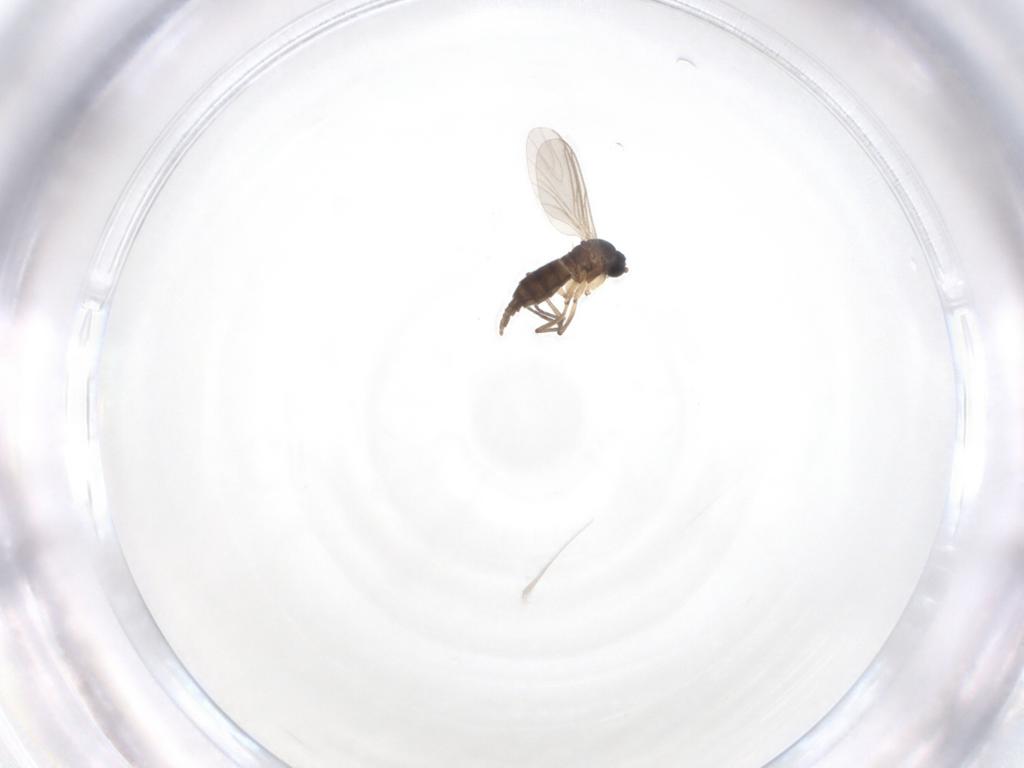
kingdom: Animalia
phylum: Arthropoda
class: Insecta
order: Diptera
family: Sciaridae
